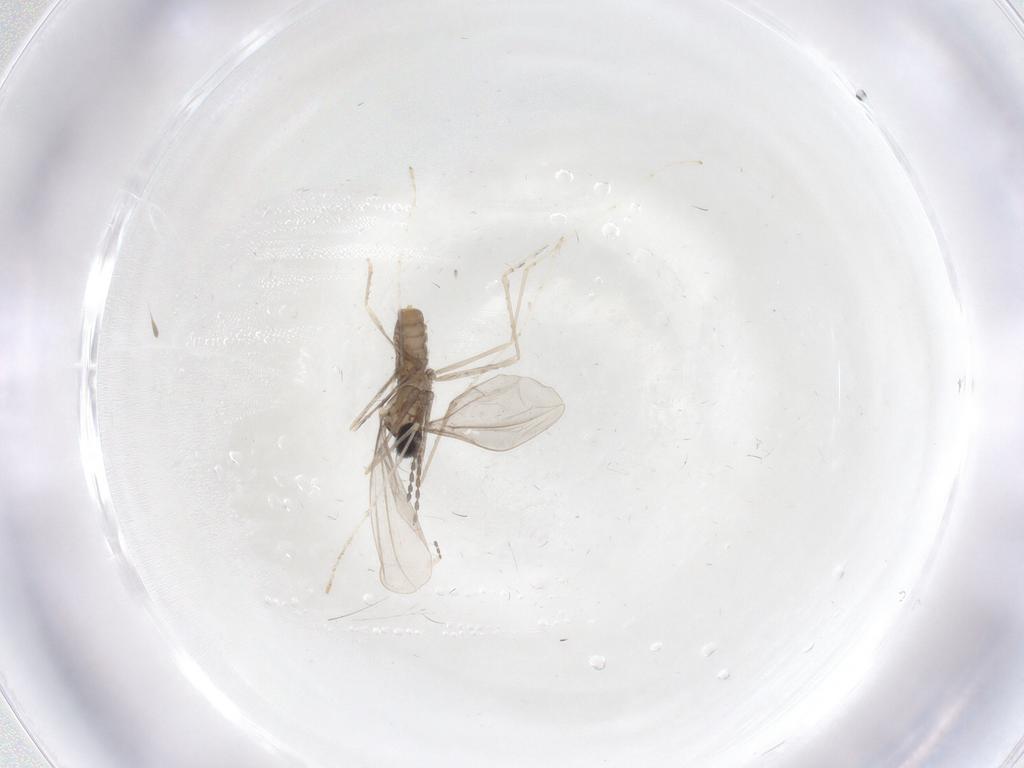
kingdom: Animalia
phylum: Arthropoda
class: Insecta
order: Diptera
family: Cecidomyiidae
